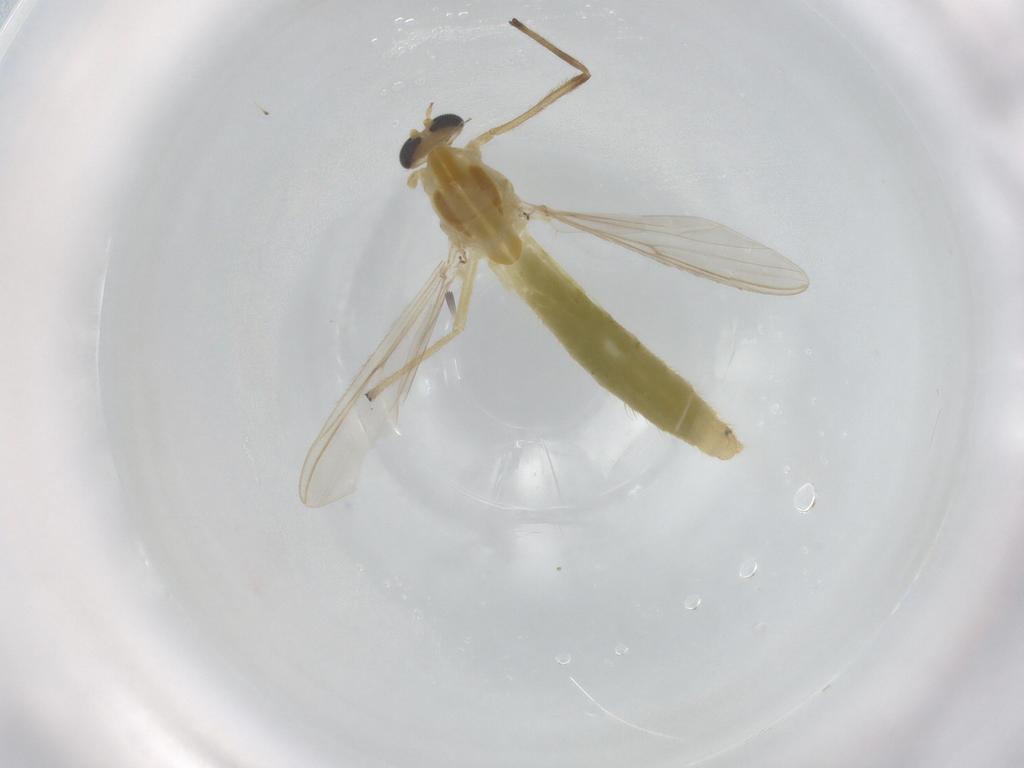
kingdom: Animalia
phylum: Arthropoda
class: Insecta
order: Diptera
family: Chironomidae
